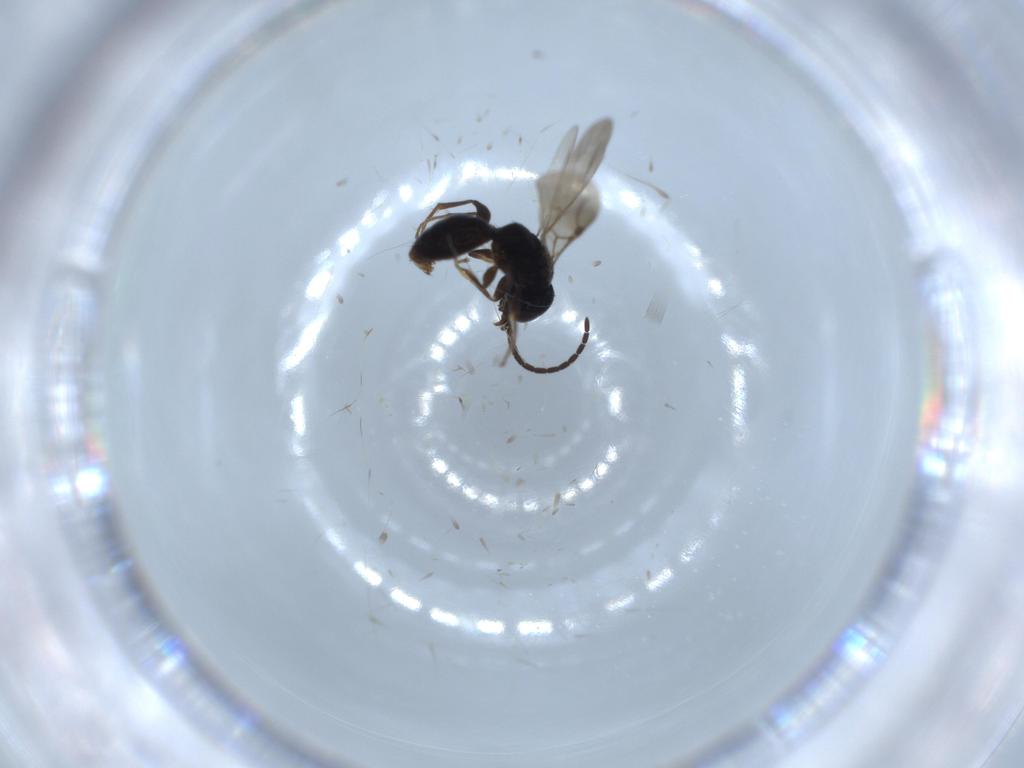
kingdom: Animalia
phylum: Arthropoda
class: Insecta
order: Hymenoptera
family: Bethylidae
